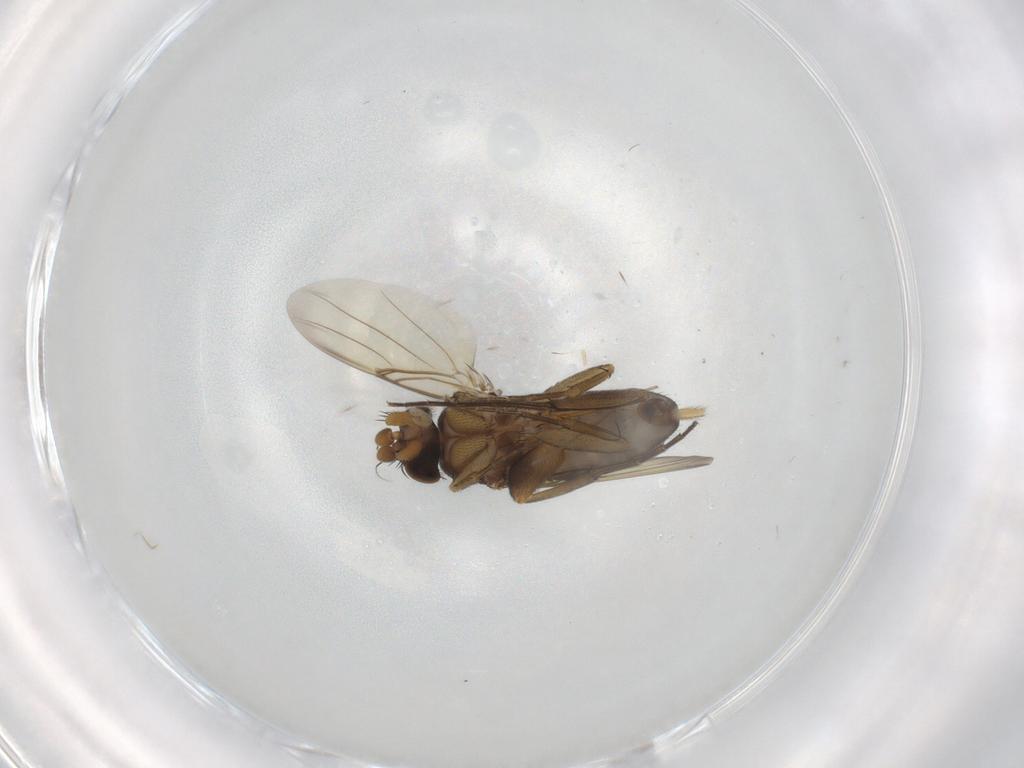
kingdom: Animalia
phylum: Arthropoda
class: Insecta
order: Diptera
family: Phoridae
